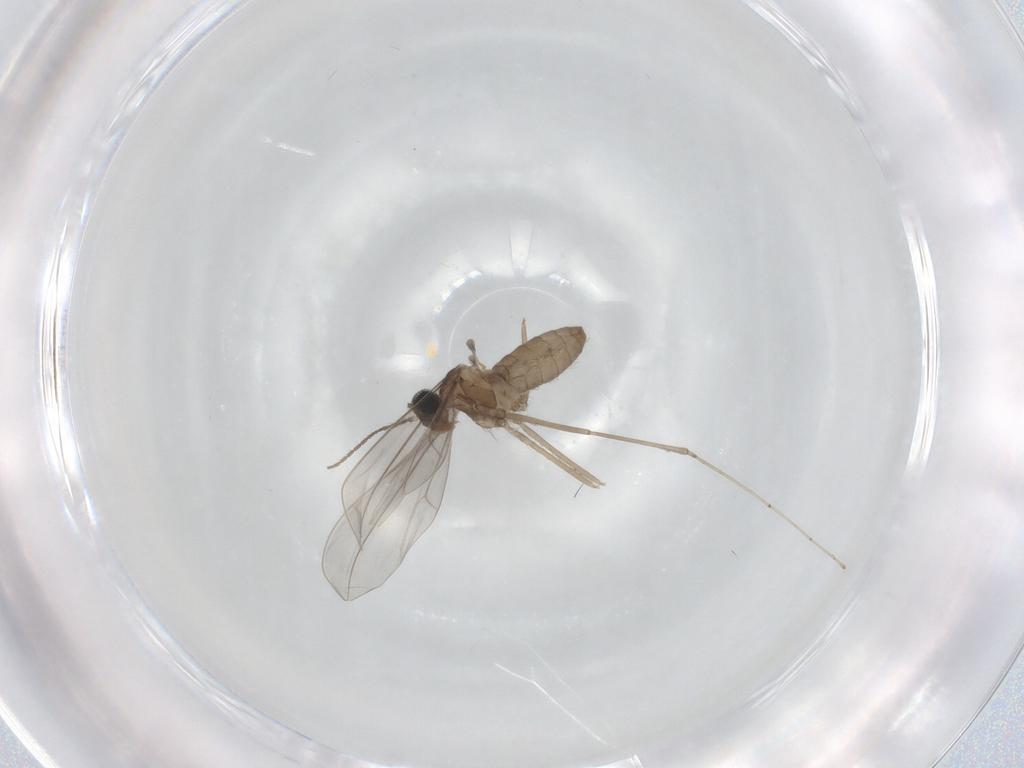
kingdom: Animalia
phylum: Arthropoda
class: Insecta
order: Diptera
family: Cecidomyiidae
